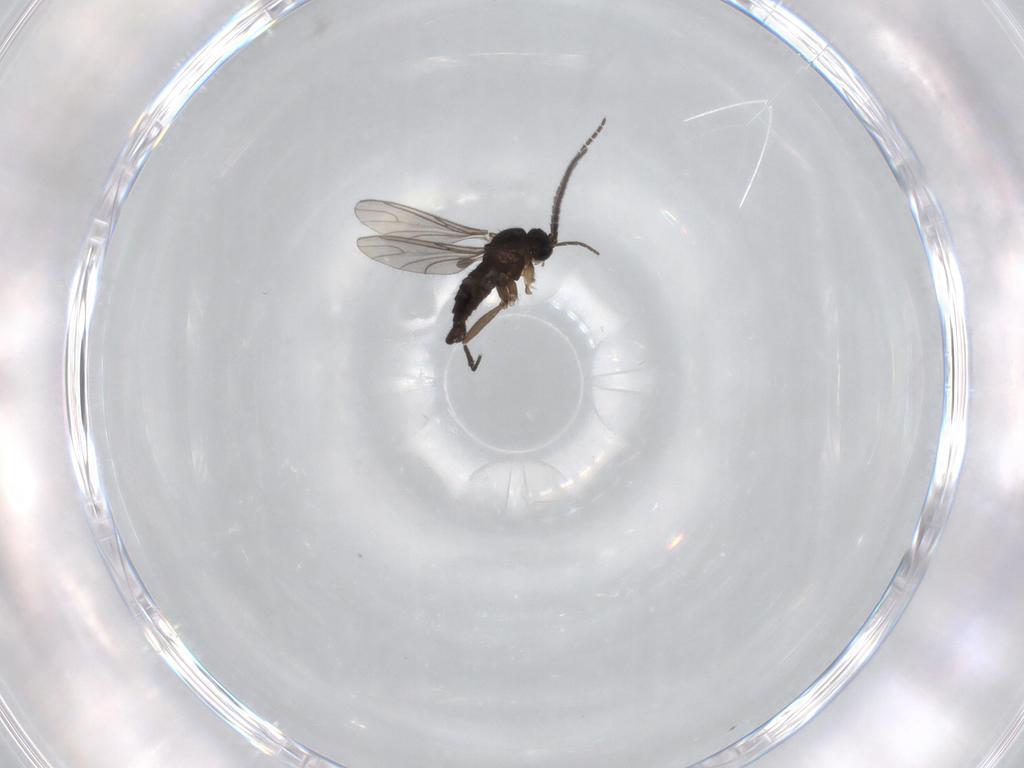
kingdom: Animalia
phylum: Arthropoda
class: Insecta
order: Diptera
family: Sciaridae
